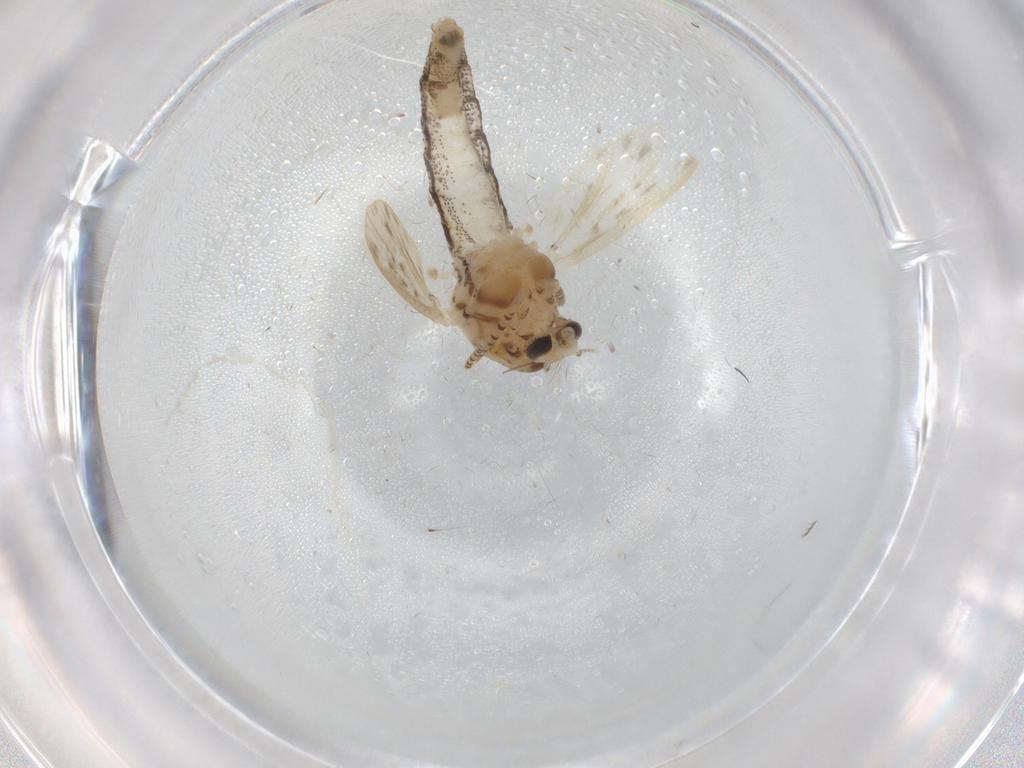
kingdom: Animalia
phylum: Arthropoda
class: Insecta
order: Diptera
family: Chaoboridae
